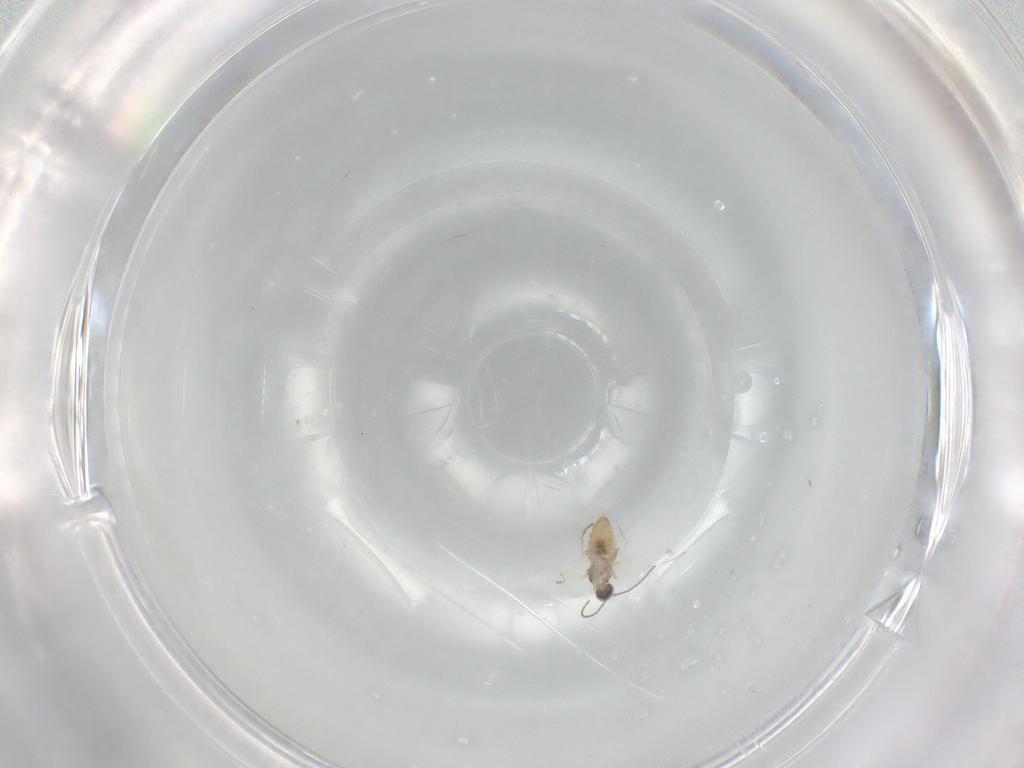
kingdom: Animalia
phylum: Arthropoda
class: Insecta
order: Diptera
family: Cecidomyiidae
